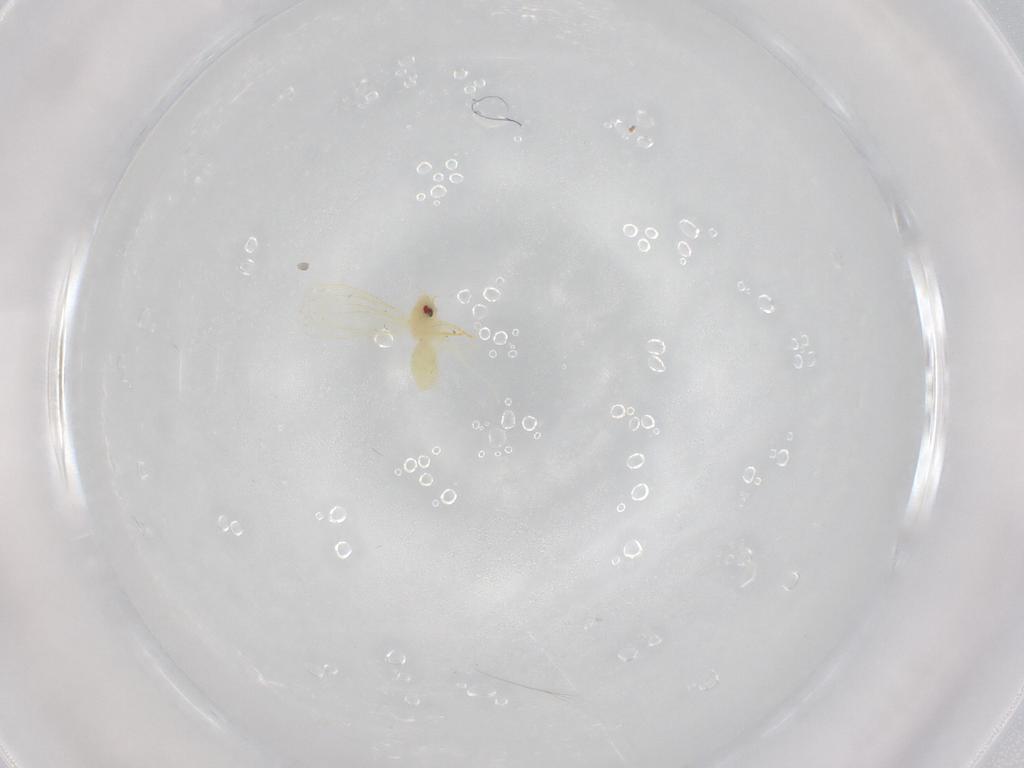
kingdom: Animalia
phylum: Arthropoda
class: Insecta
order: Hemiptera
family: Aleyrodidae
